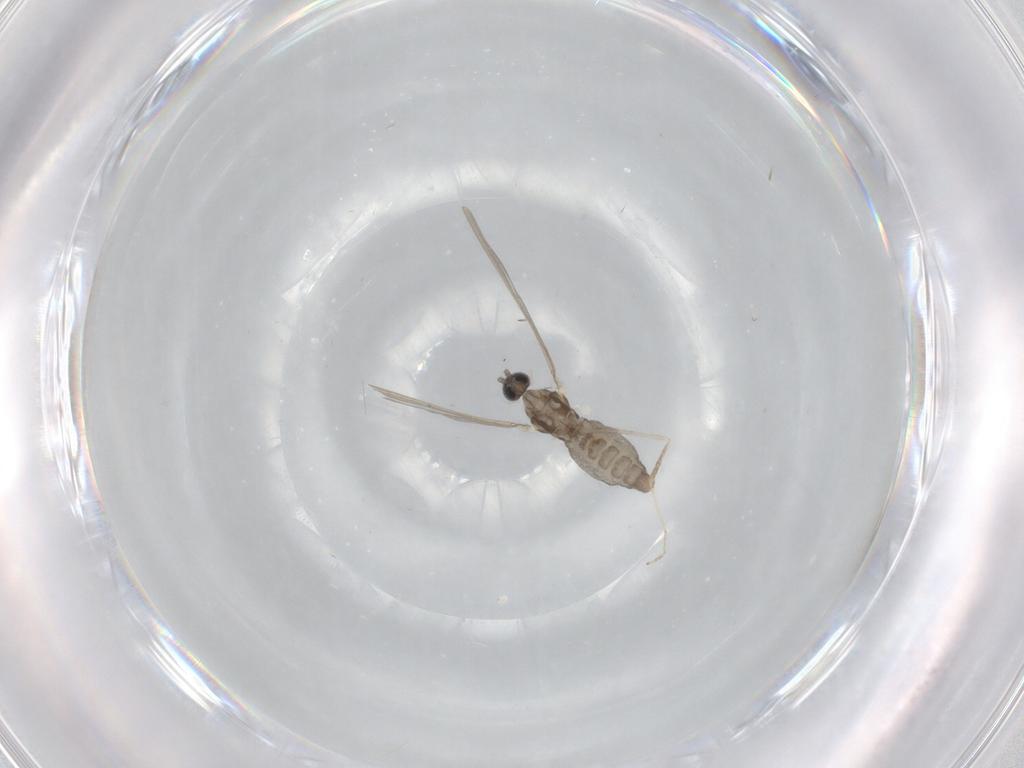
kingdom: Animalia
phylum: Arthropoda
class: Insecta
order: Diptera
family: Cecidomyiidae
